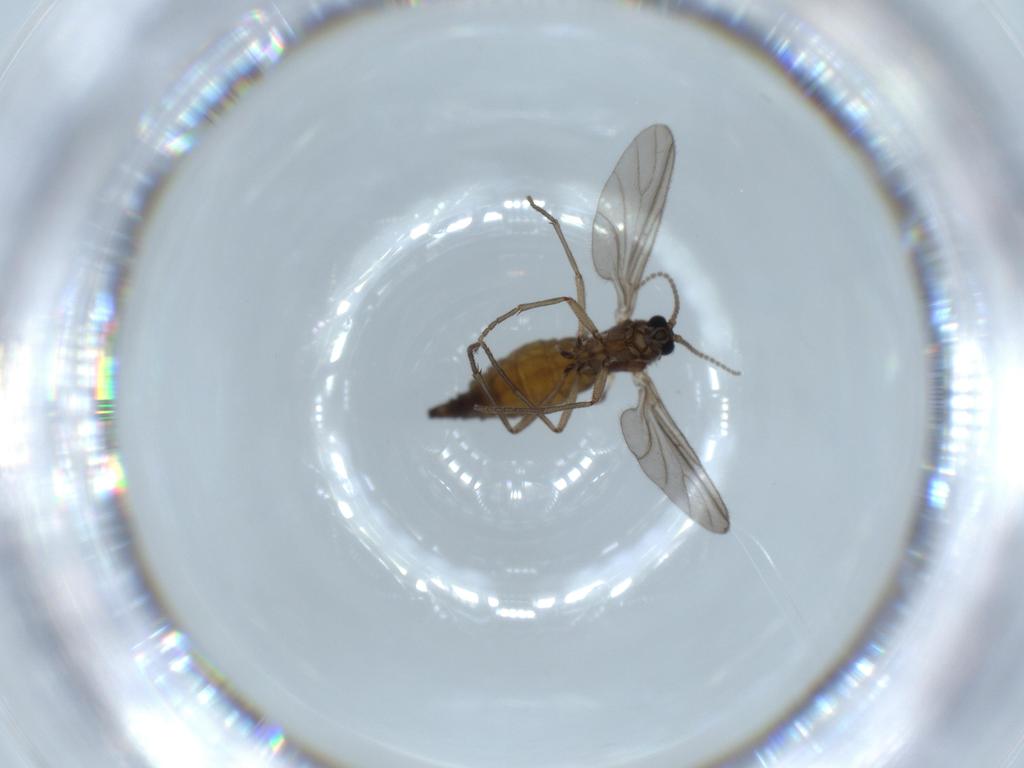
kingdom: Animalia
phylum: Arthropoda
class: Insecta
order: Diptera
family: Sciaridae
